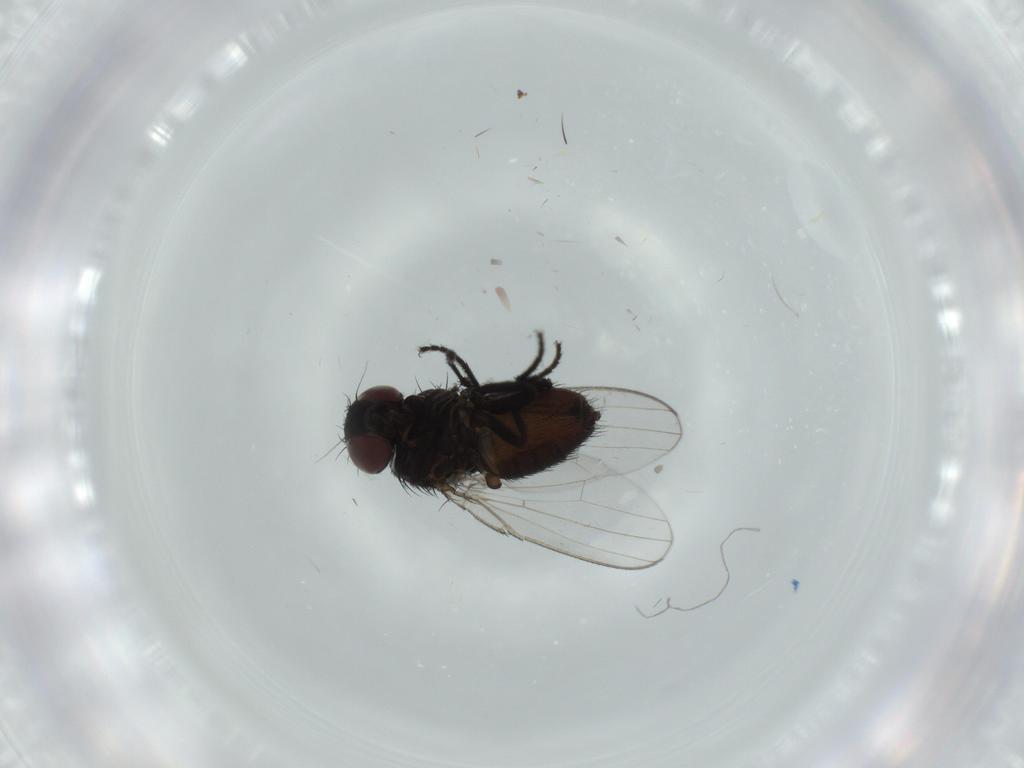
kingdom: Animalia
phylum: Arthropoda
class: Insecta
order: Diptera
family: Milichiidae
